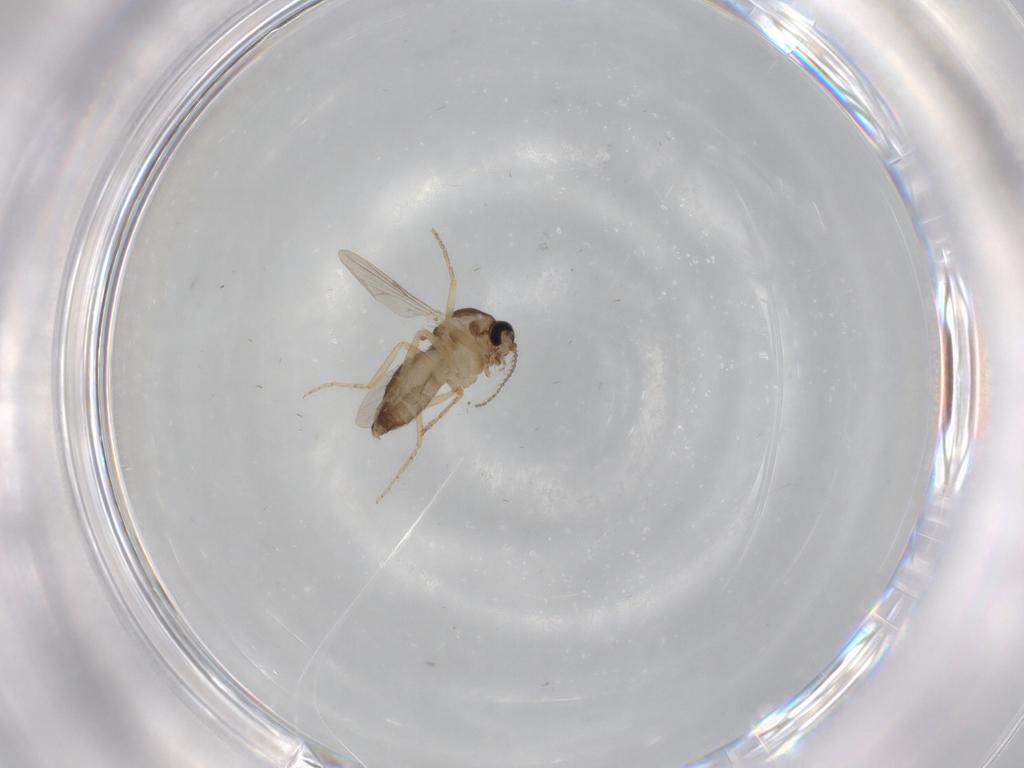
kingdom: Animalia
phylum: Arthropoda
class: Insecta
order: Diptera
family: Ceratopogonidae
